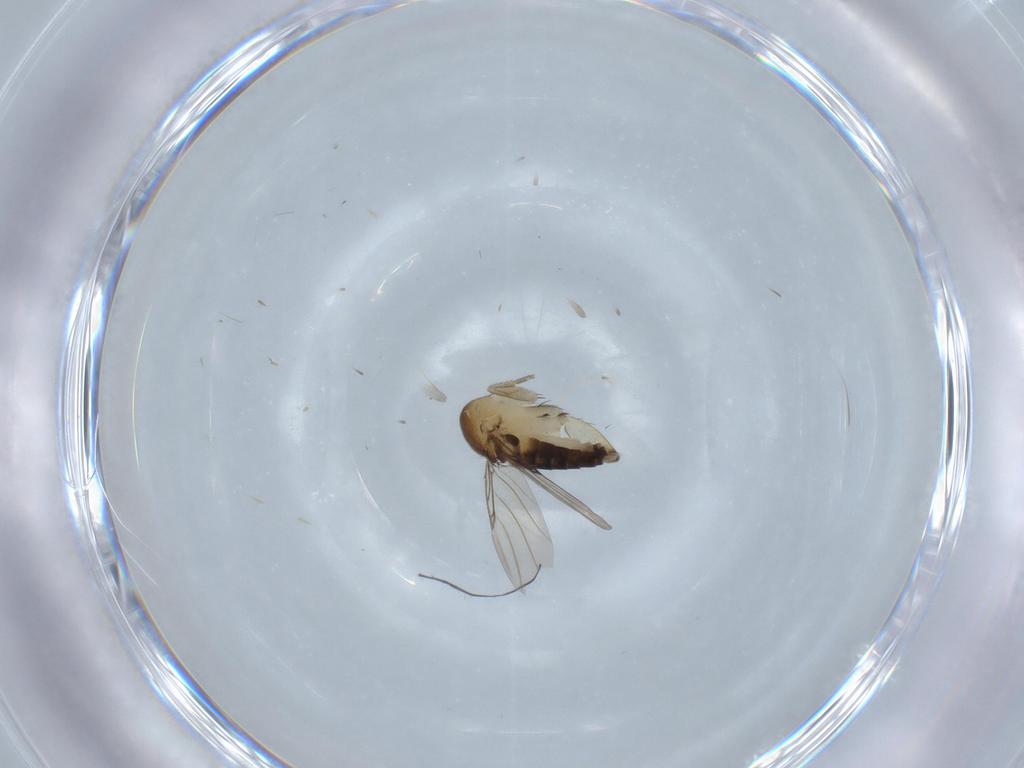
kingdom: Animalia
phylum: Arthropoda
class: Insecta
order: Diptera
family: Phoridae
